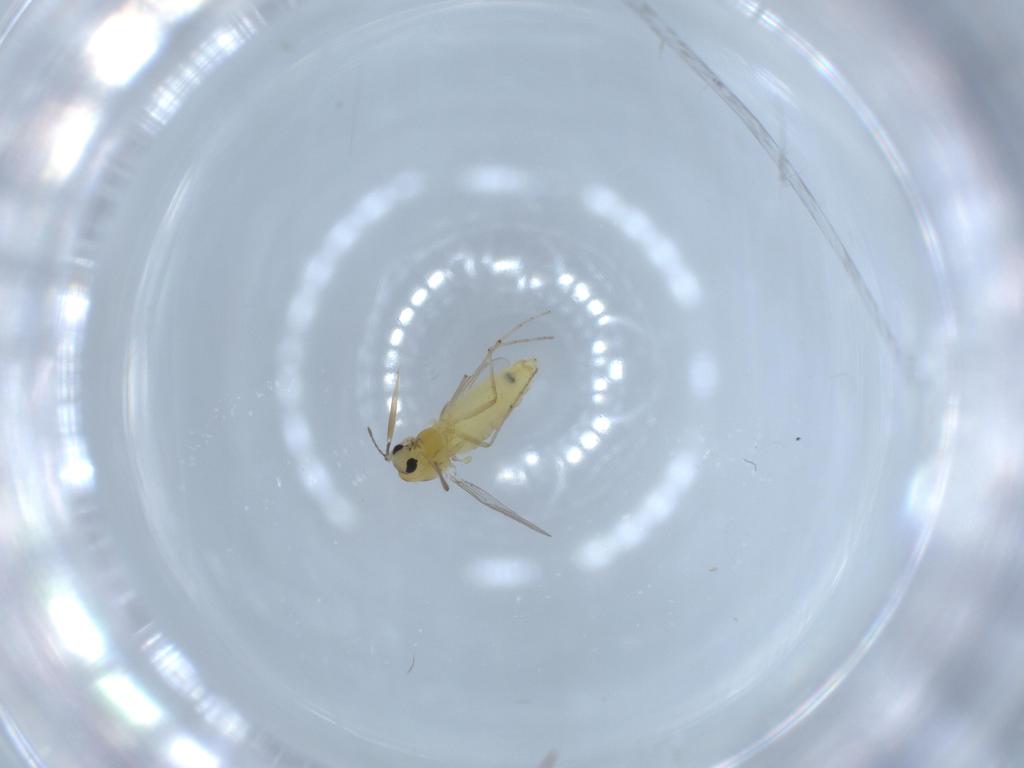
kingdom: Animalia
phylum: Arthropoda
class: Insecta
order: Diptera
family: Chironomidae
